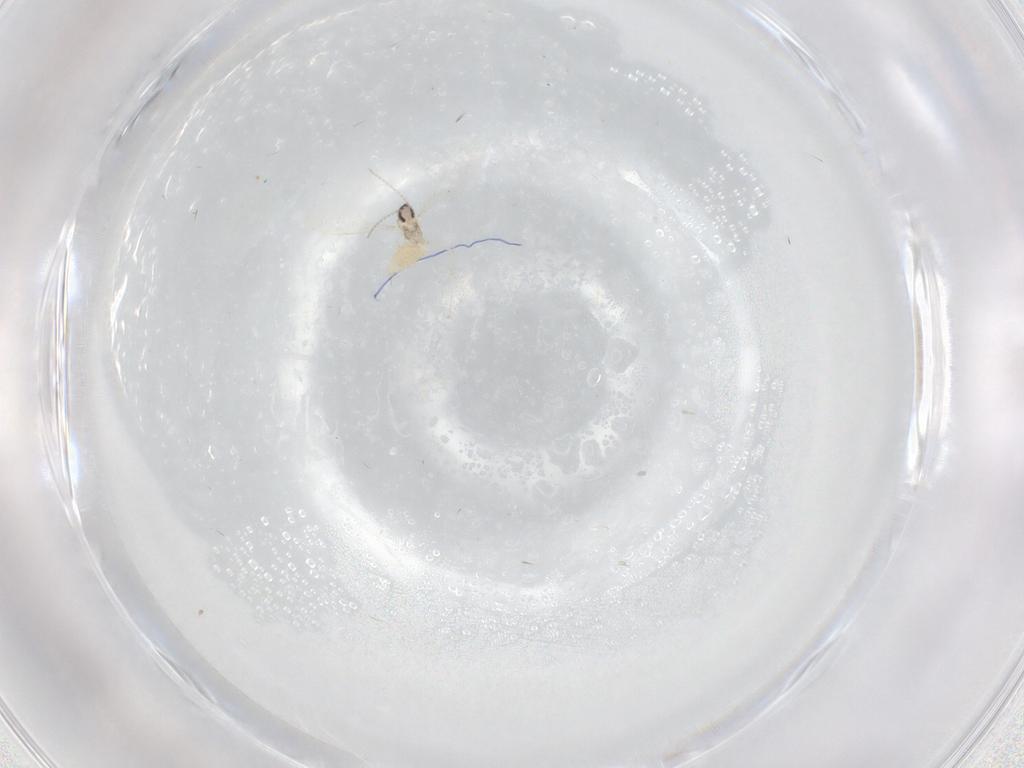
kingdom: Animalia
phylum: Arthropoda
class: Insecta
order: Diptera
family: Cecidomyiidae
